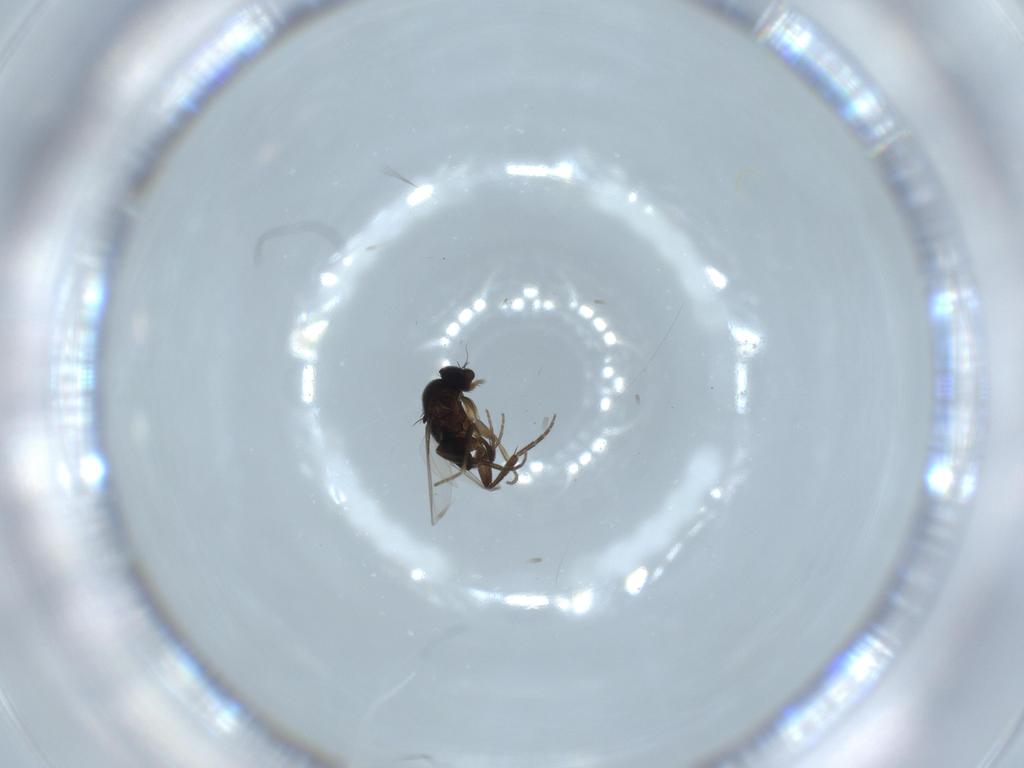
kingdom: Animalia
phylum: Arthropoda
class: Insecta
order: Diptera
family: Phoridae
